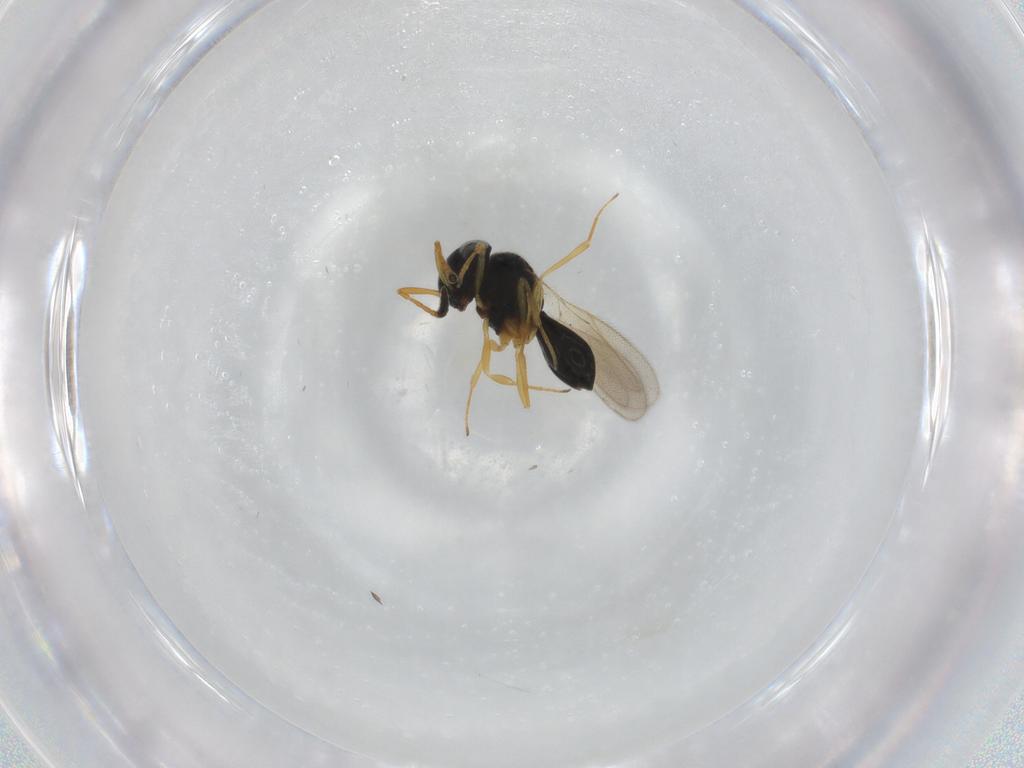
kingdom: Animalia
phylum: Arthropoda
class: Insecta
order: Hymenoptera
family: Scelionidae
